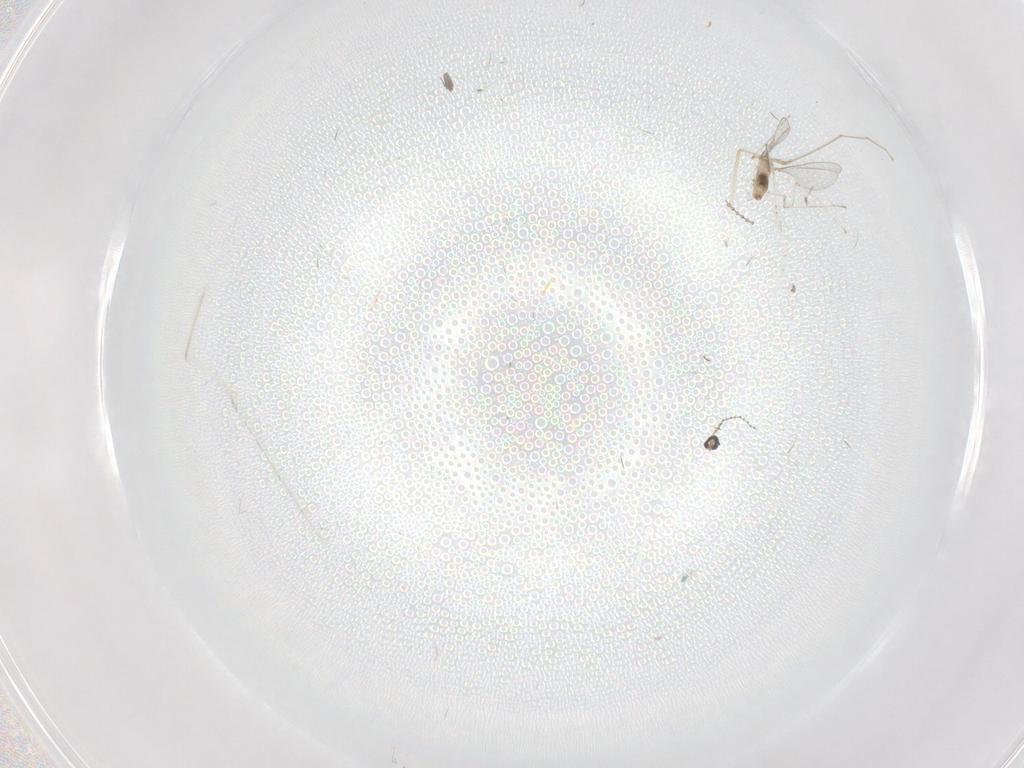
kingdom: Animalia
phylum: Arthropoda
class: Insecta
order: Diptera
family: Cecidomyiidae
